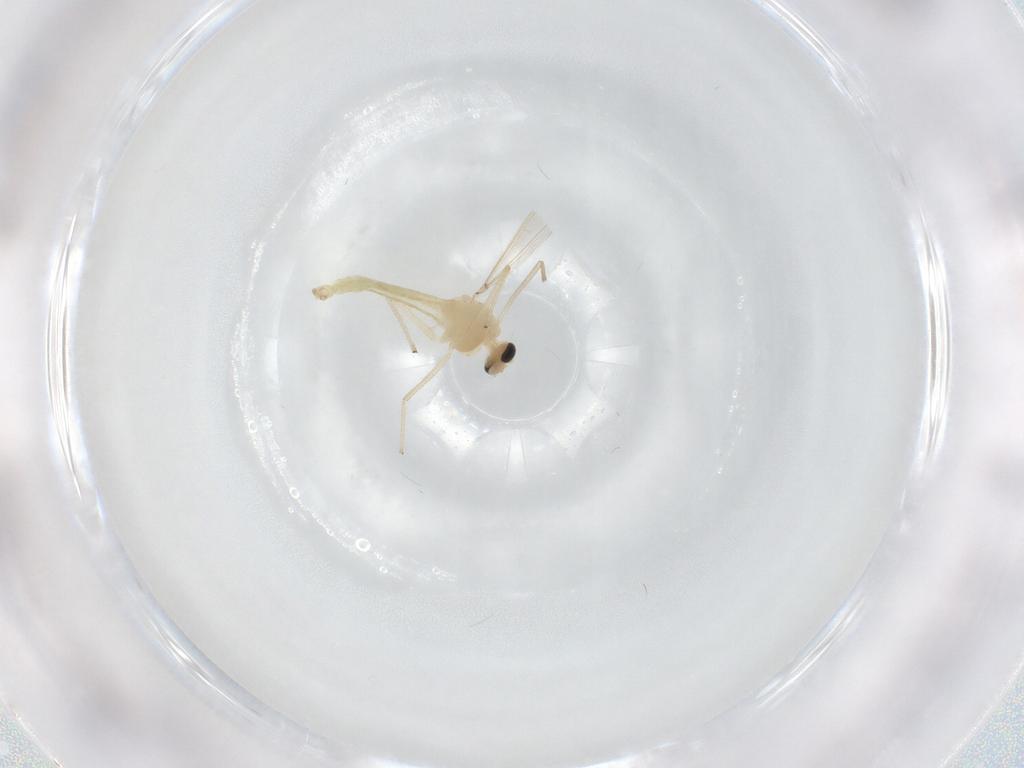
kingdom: Animalia
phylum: Arthropoda
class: Insecta
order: Diptera
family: Chironomidae
